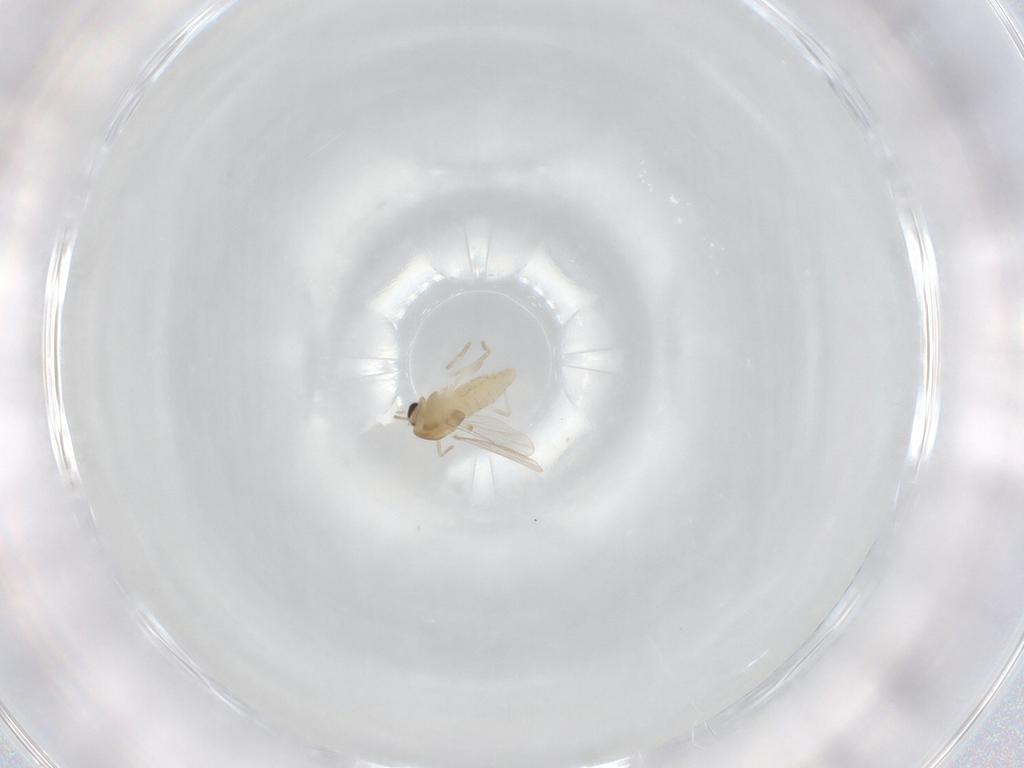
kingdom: Animalia
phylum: Arthropoda
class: Insecta
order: Diptera
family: Chironomidae
